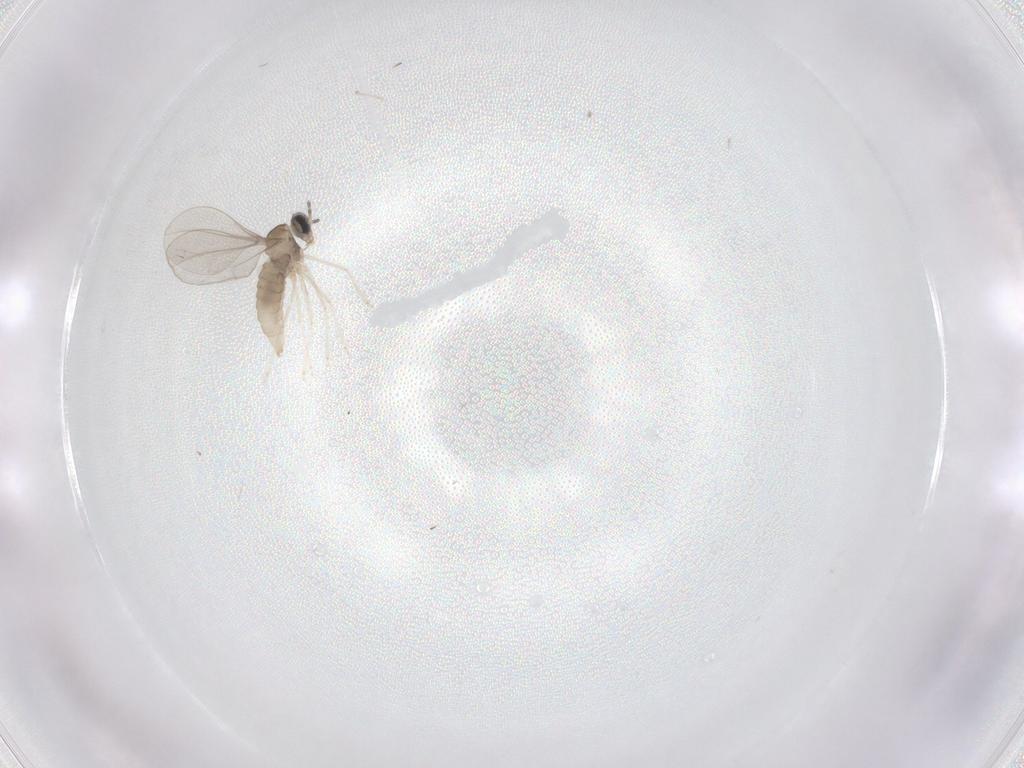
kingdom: Animalia
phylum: Arthropoda
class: Insecta
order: Diptera
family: Cecidomyiidae
